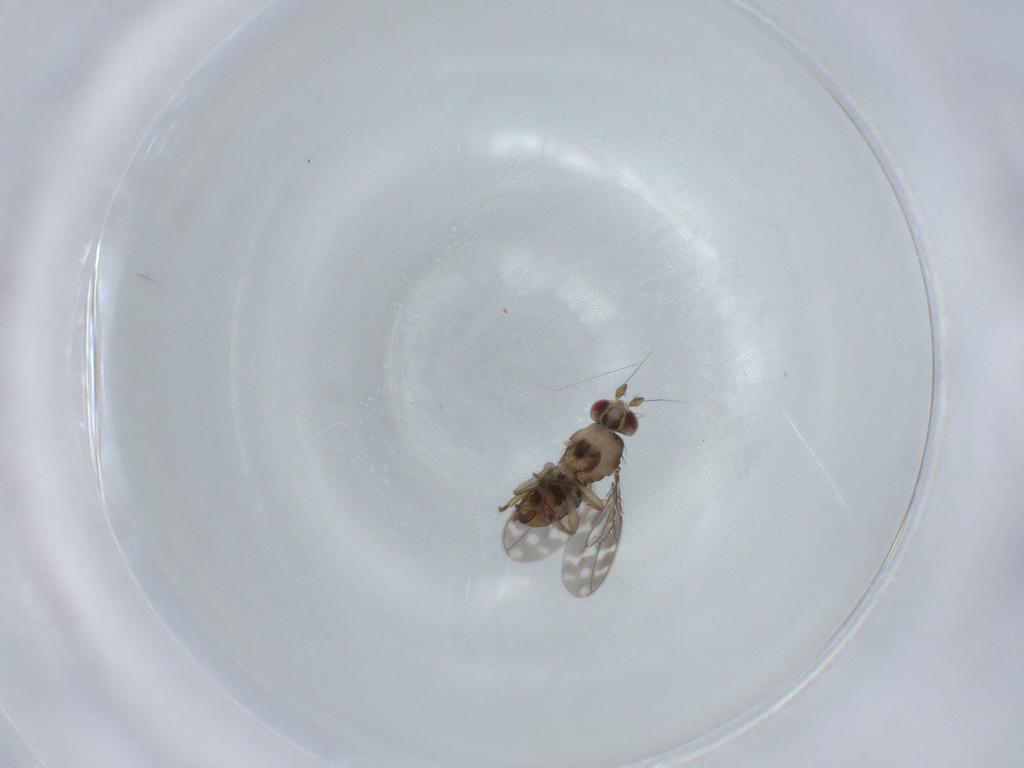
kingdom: Animalia
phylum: Arthropoda
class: Insecta
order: Diptera
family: Sphaeroceridae
